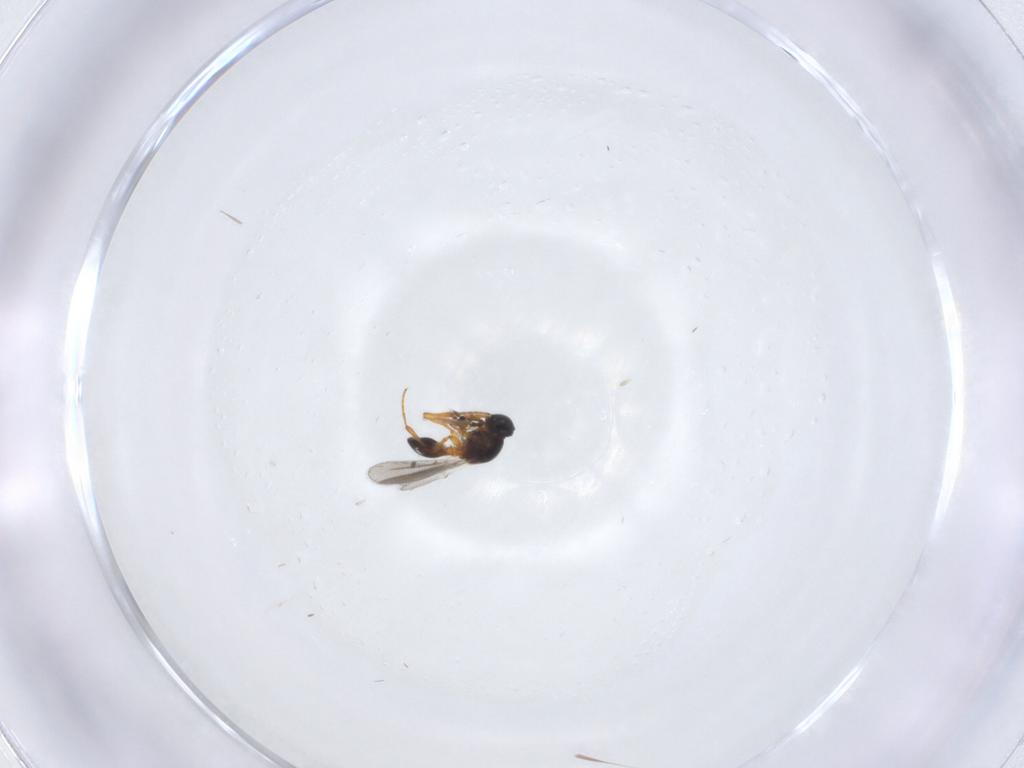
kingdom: Animalia
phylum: Arthropoda
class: Insecta
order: Hymenoptera
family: Platygastridae
